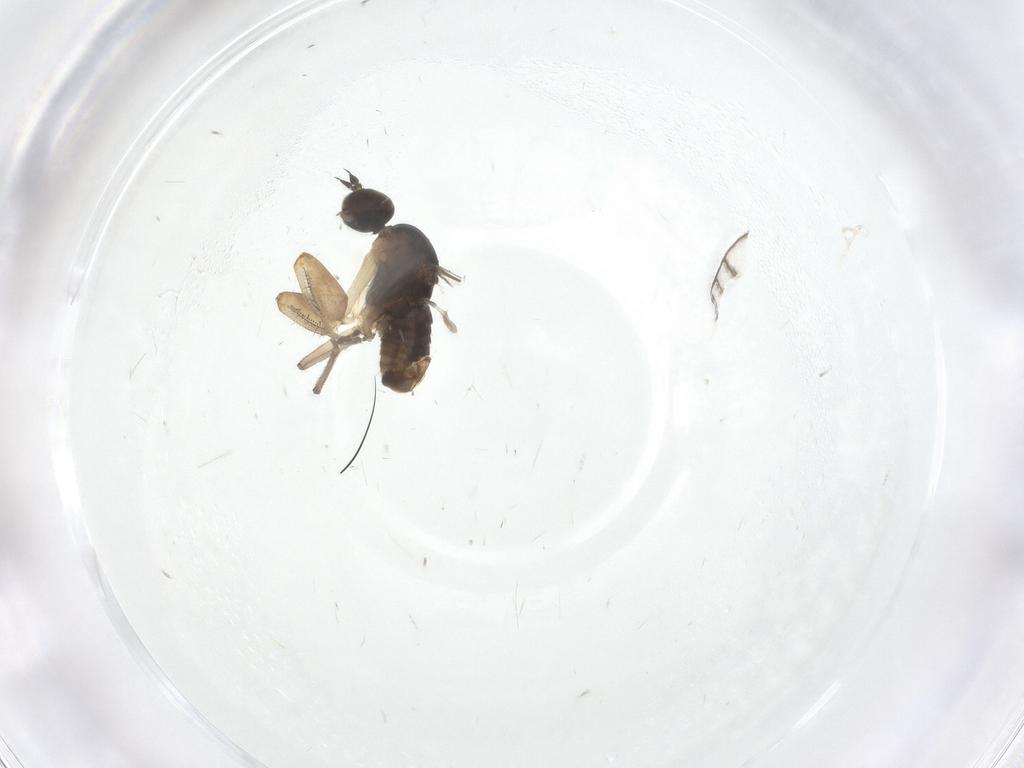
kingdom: Animalia
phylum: Arthropoda
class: Insecta
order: Diptera
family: Empididae
